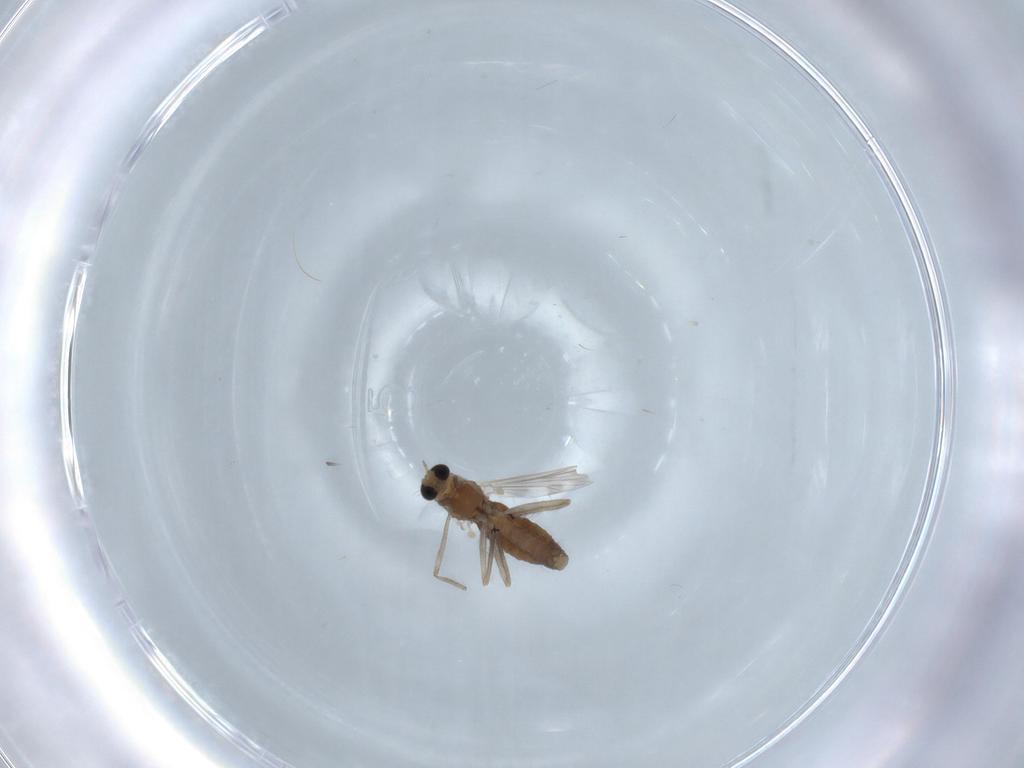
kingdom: Animalia
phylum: Arthropoda
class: Insecta
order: Diptera
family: Chironomidae
